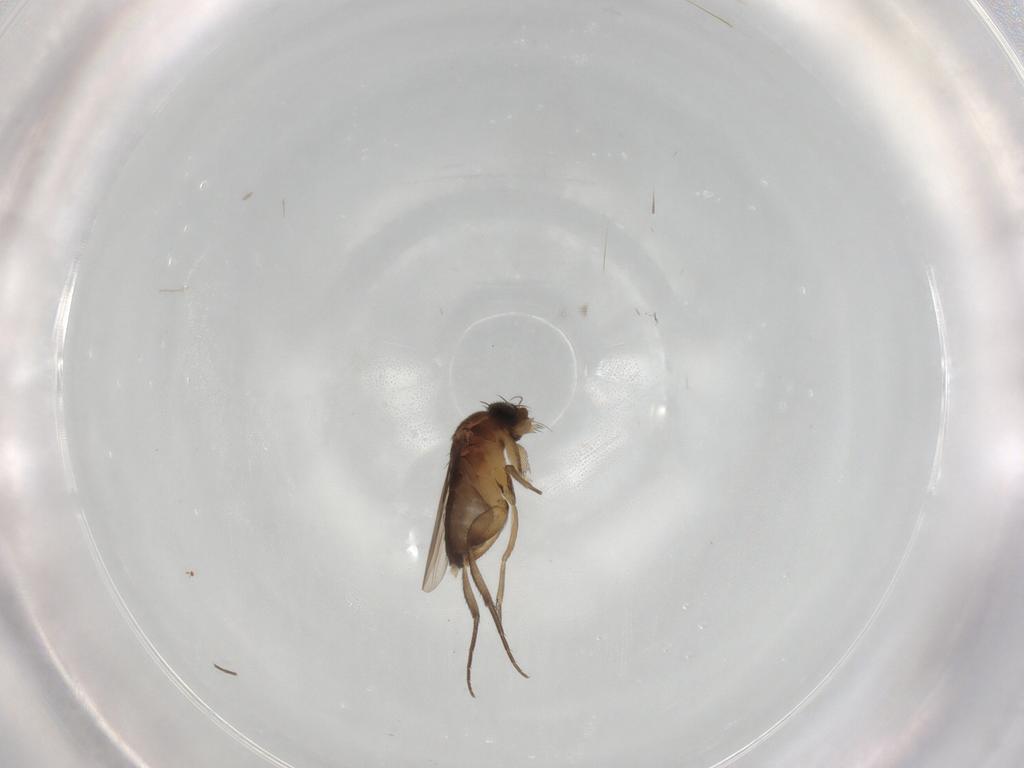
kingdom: Animalia
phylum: Arthropoda
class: Insecta
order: Diptera
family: Phoridae
